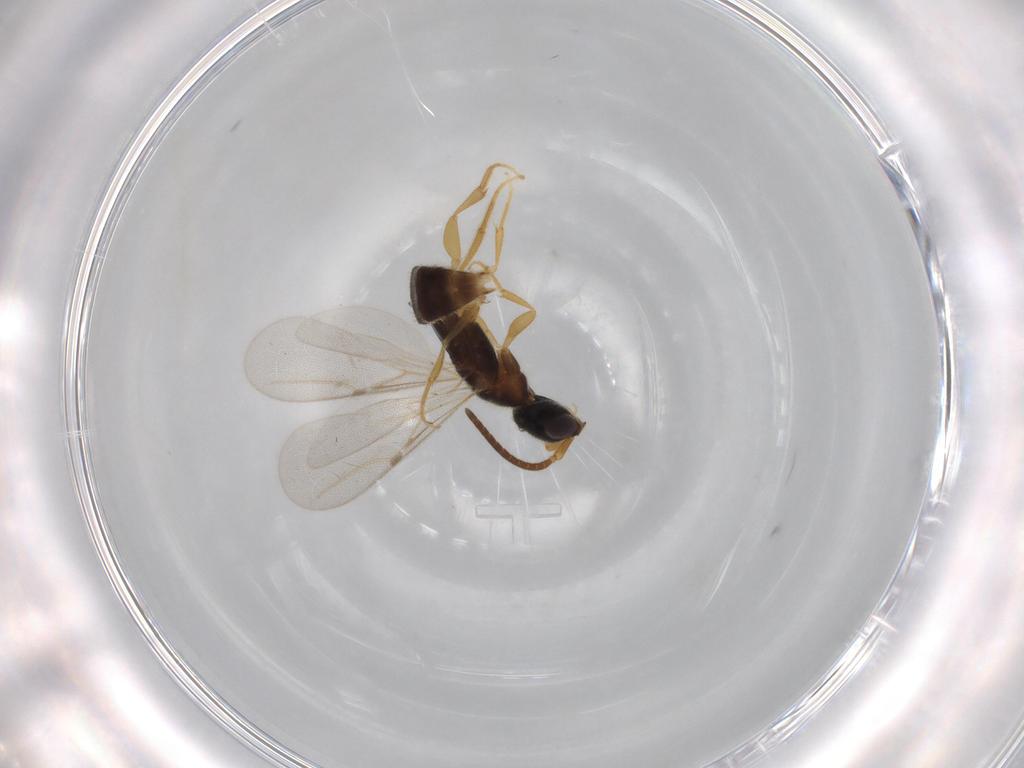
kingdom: Animalia
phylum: Arthropoda
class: Insecta
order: Hymenoptera
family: Bethylidae
